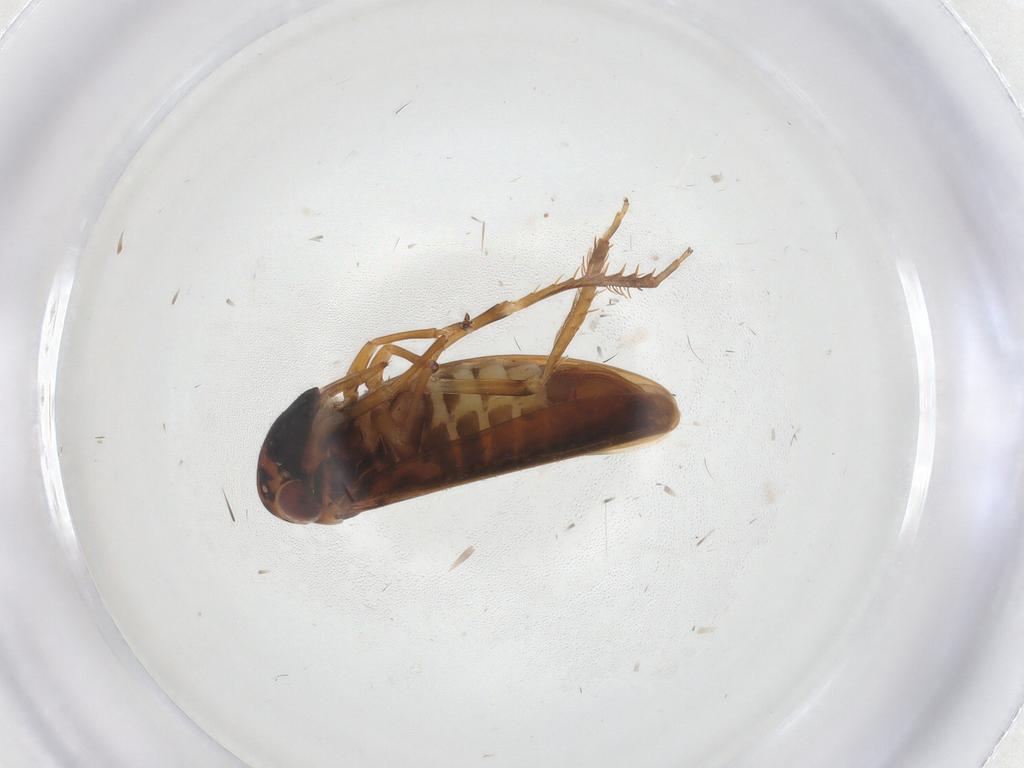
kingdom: Animalia
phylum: Arthropoda
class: Insecta
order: Hemiptera
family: Cicadellidae
